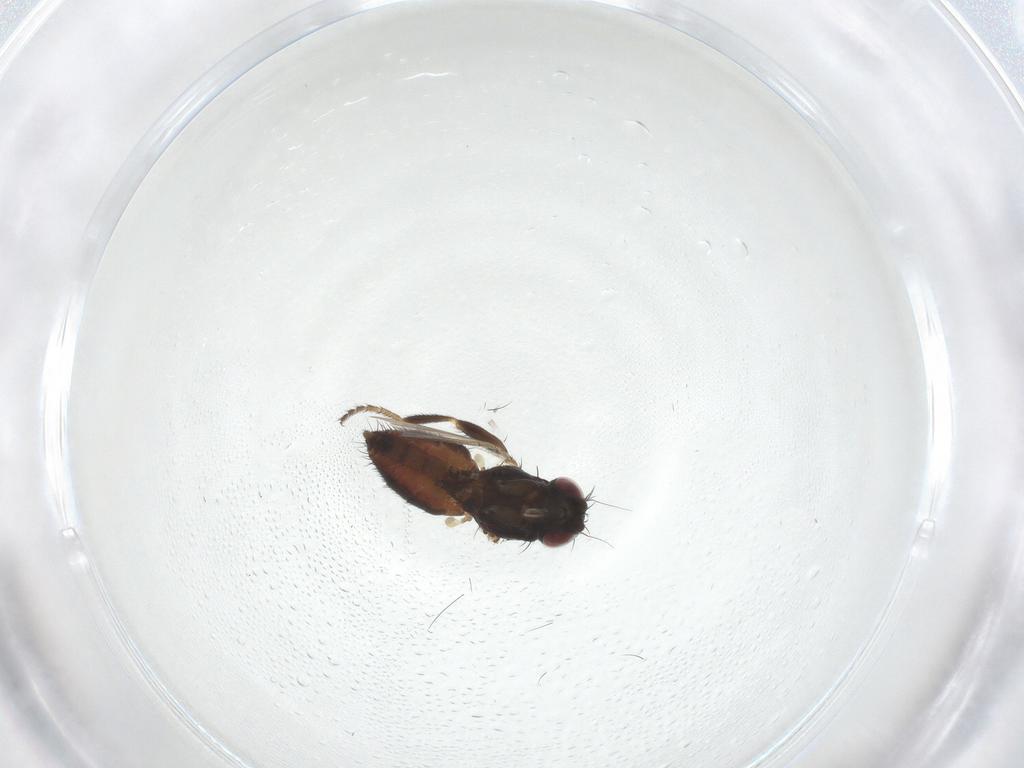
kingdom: Animalia
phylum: Arthropoda
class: Insecta
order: Diptera
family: Milichiidae
